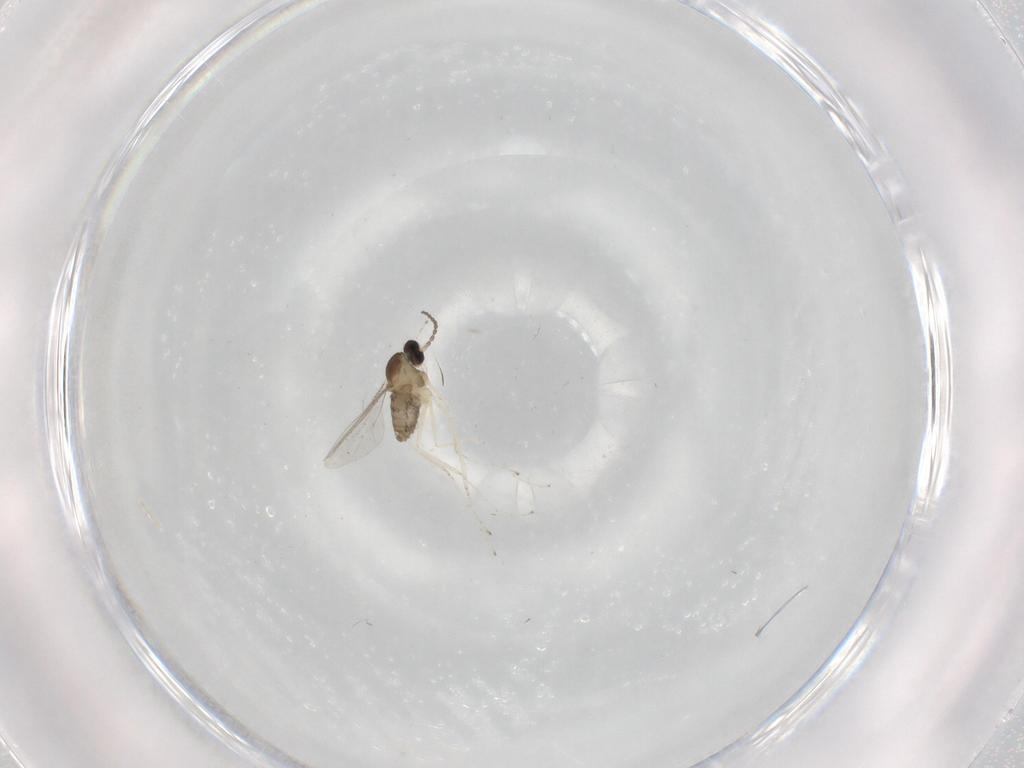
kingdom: Animalia
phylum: Arthropoda
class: Insecta
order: Diptera
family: Cecidomyiidae
